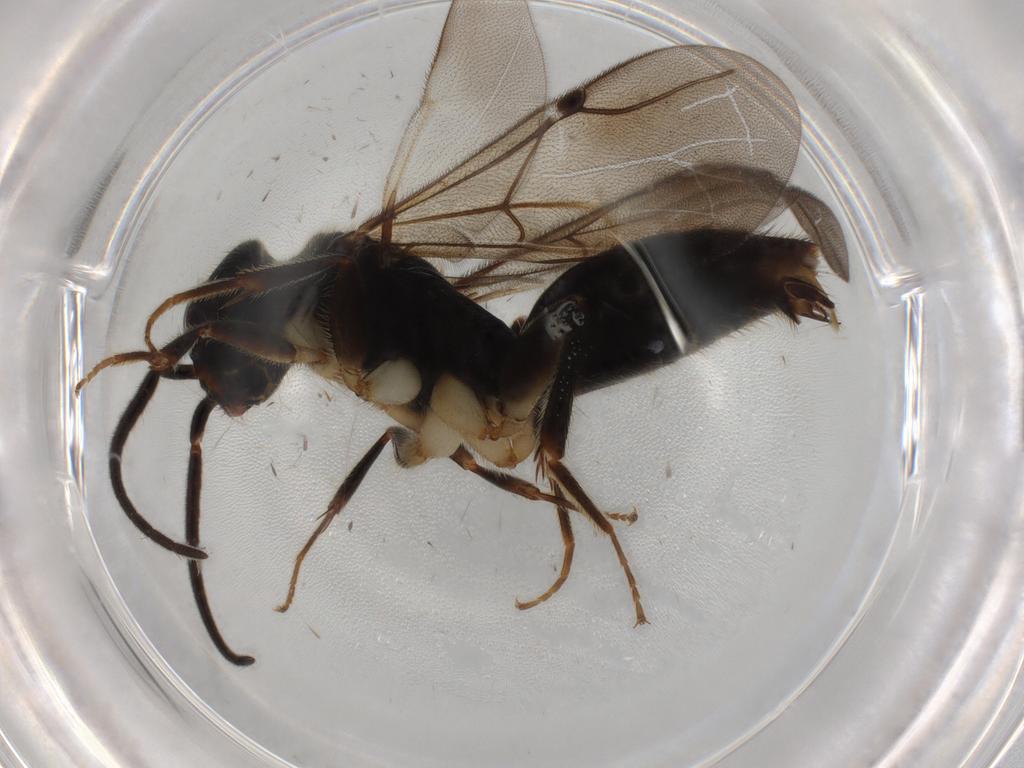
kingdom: Animalia
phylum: Arthropoda
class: Insecta
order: Hymenoptera
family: Bethylidae
